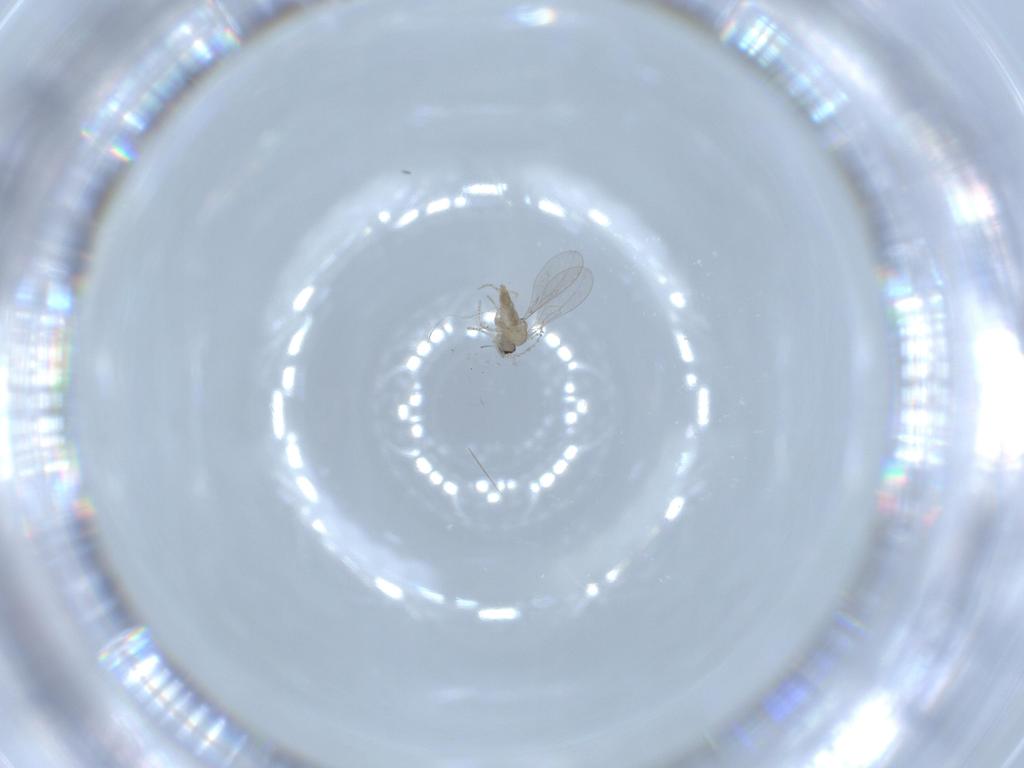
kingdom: Animalia
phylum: Arthropoda
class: Insecta
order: Diptera
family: Cecidomyiidae
